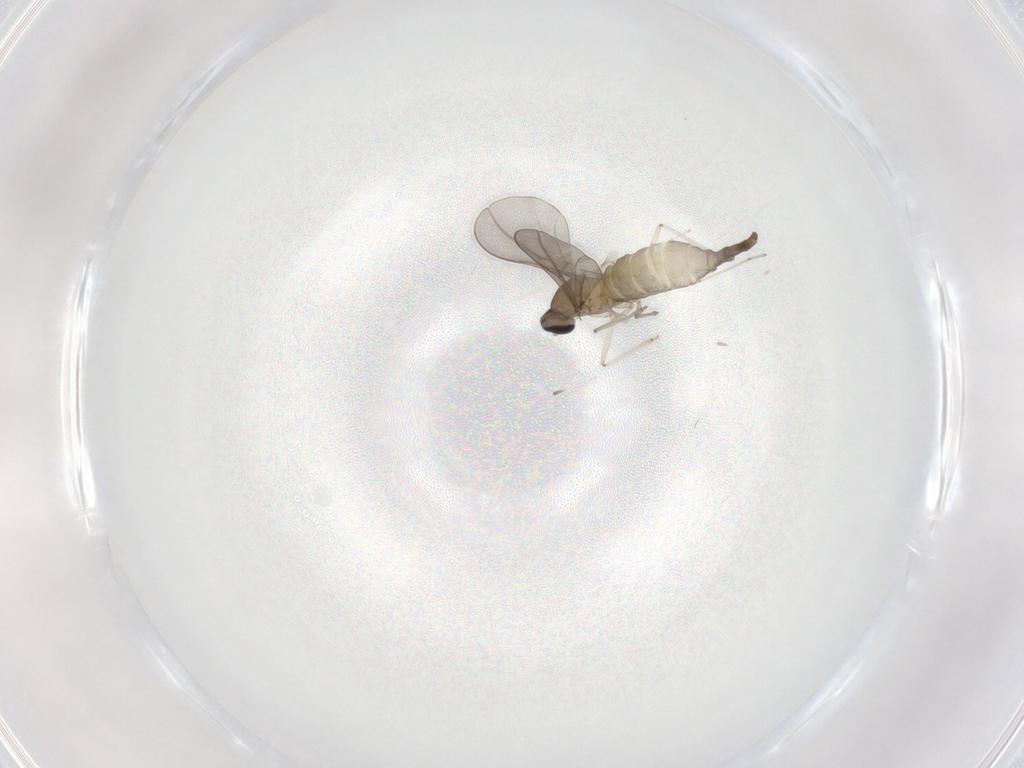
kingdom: Animalia
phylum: Arthropoda
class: Insecta
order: Diptera
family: Cecidomyiidae
